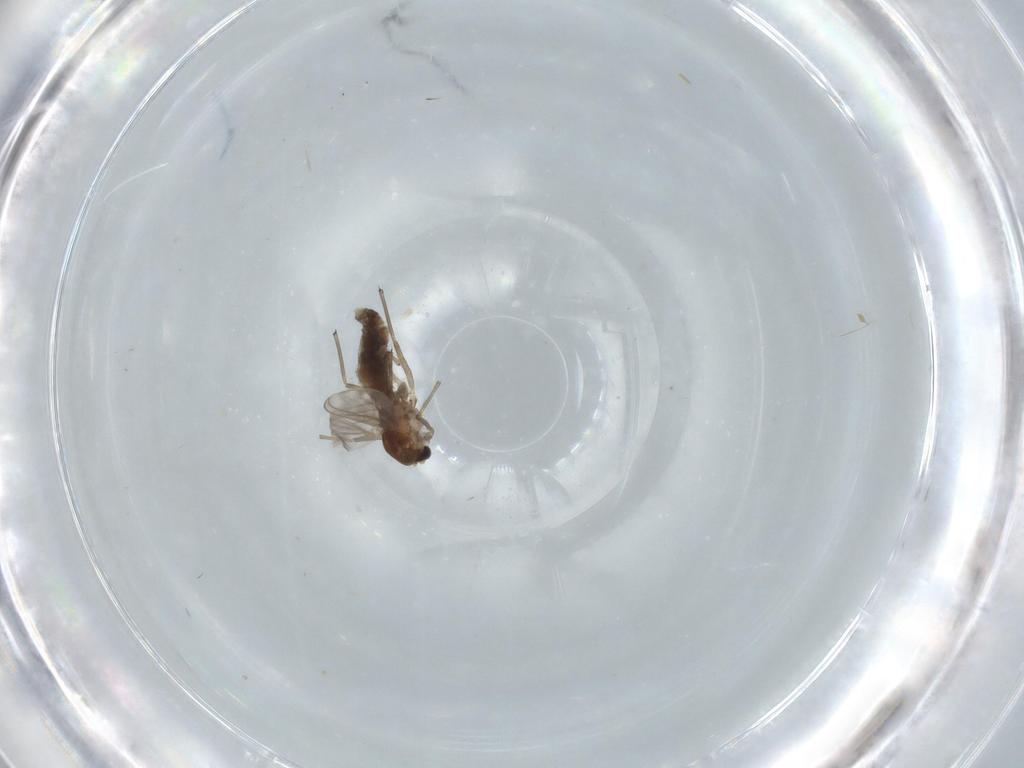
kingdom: Animalia
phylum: Arthropoda
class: Insecta
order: Diptera
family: Chironomidae
